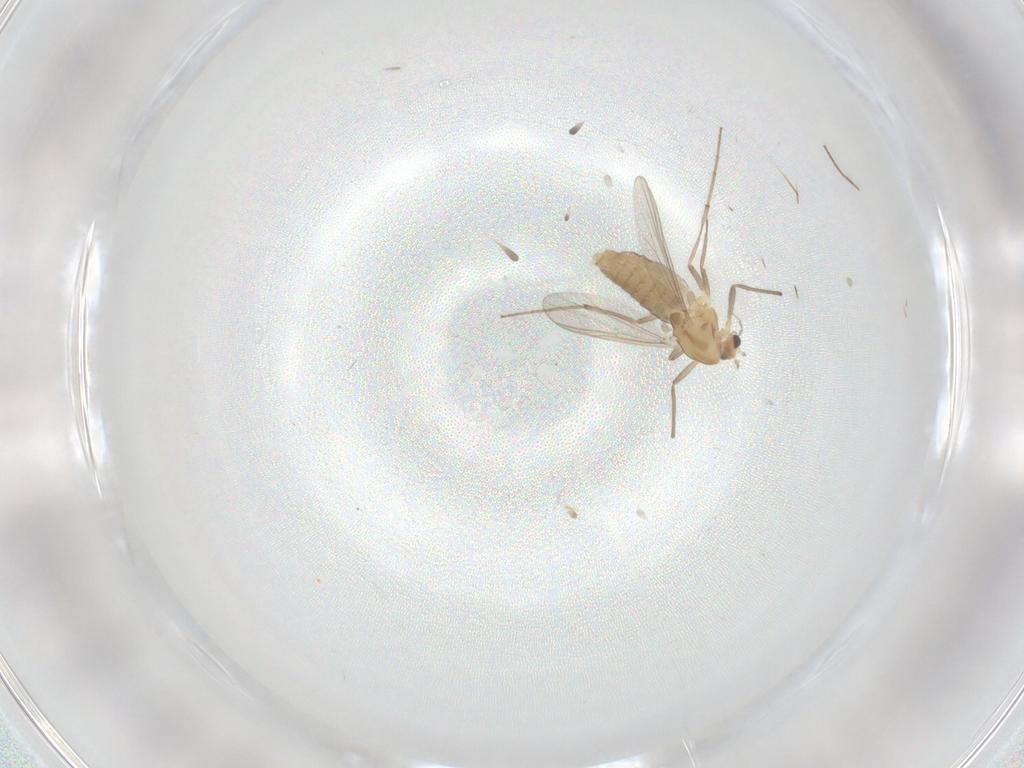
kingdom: Animalia
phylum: Arthropoda
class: Insecta
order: Diptera
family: Chironomidae
